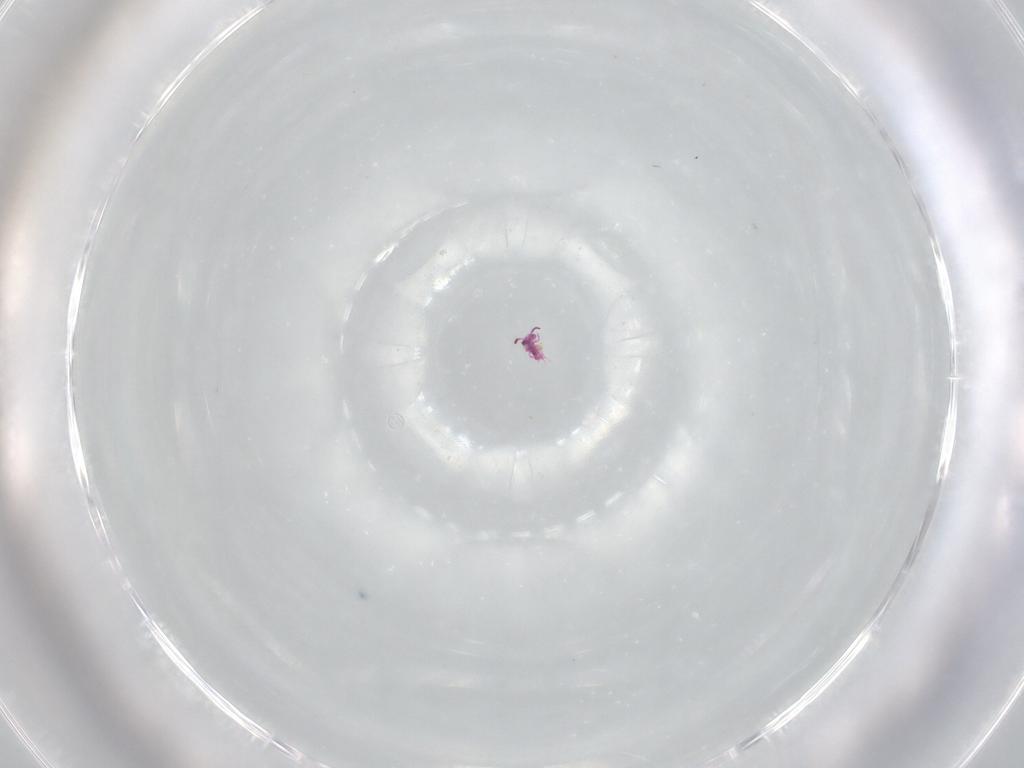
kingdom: Animalia
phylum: Arthropoda
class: Collembola
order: Symphypleona
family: Sminthurididae
